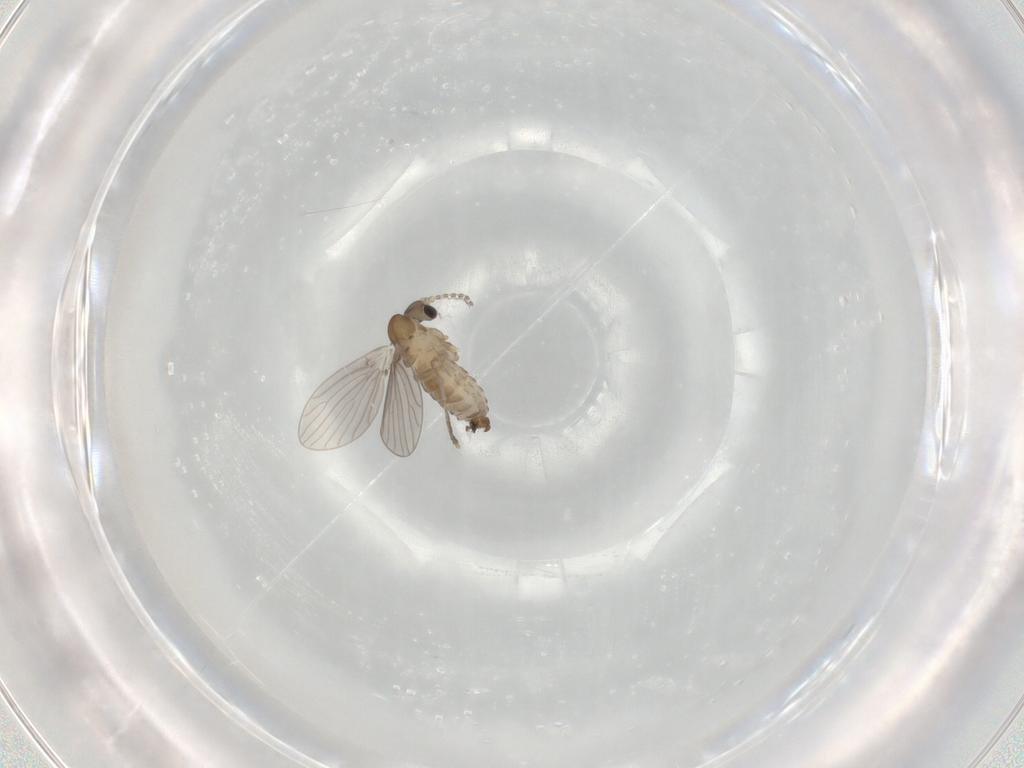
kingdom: Animalia
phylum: Arthropoda
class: Insecta
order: Diptera
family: Psychodidae
